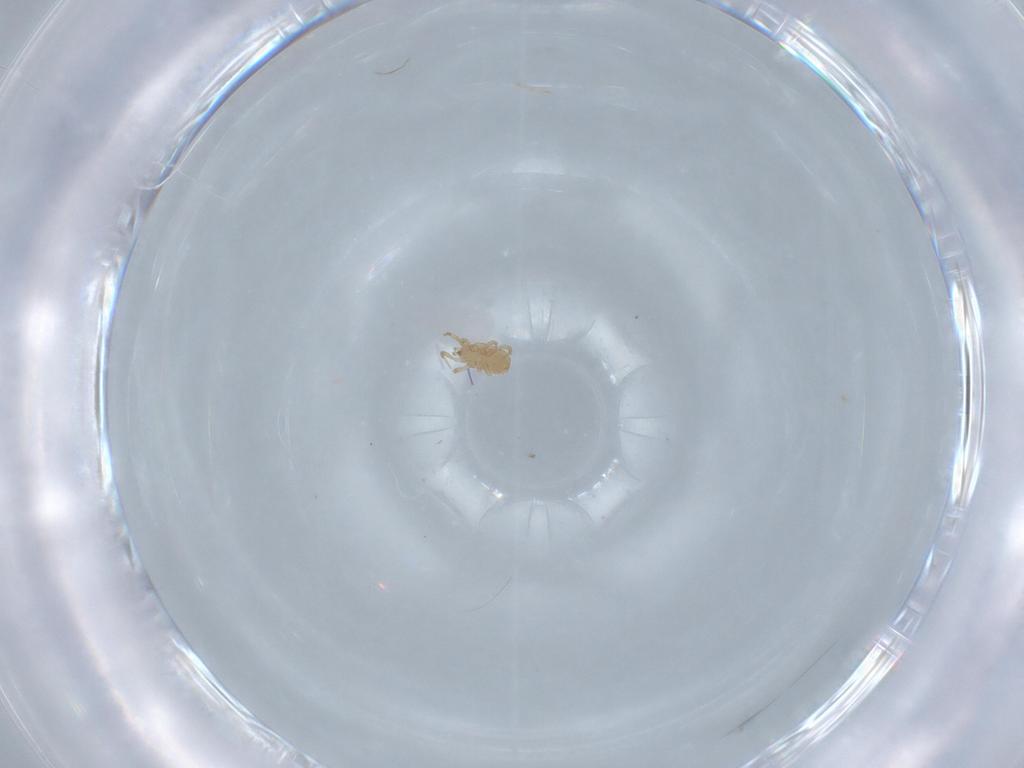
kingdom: Animalia
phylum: Arthropoda
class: Arachnida
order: Mesostigmata
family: Blattisociidae
